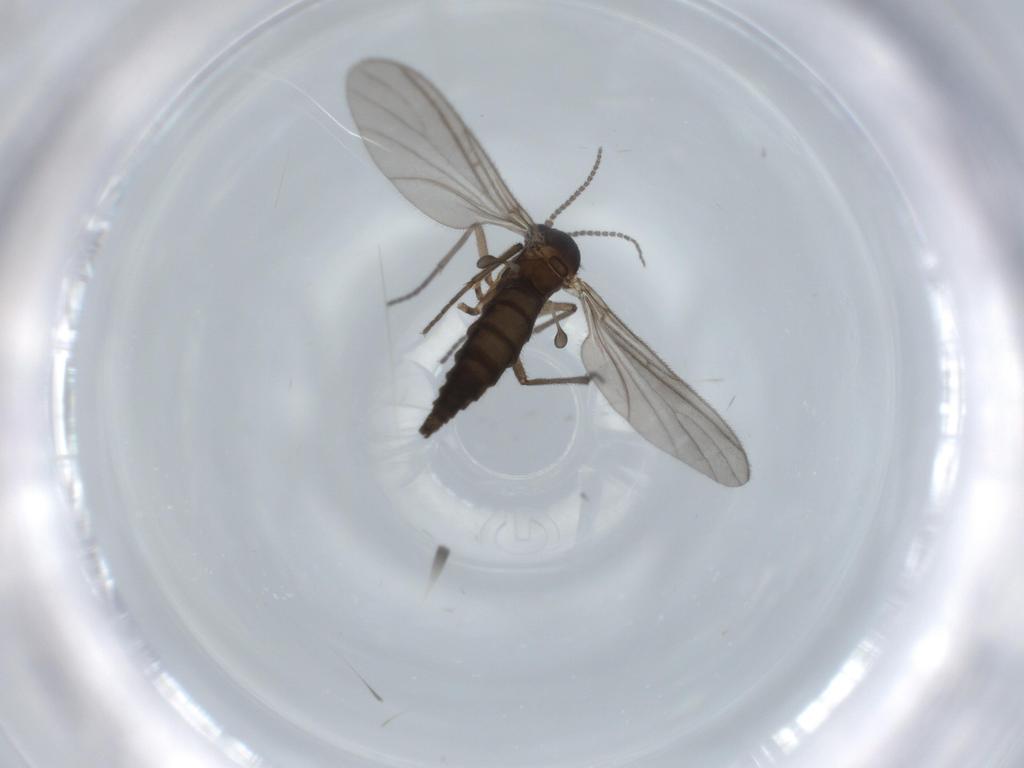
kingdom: Animalia
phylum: Arthropoda
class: Insecta
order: Diptera
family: Sciaridae
